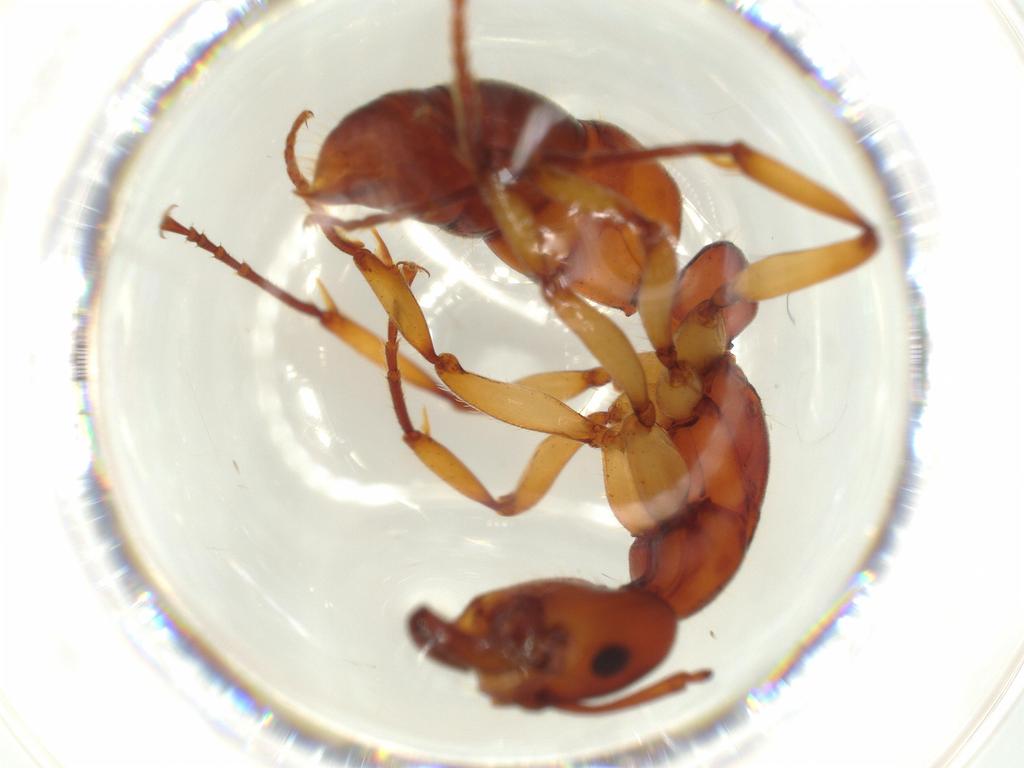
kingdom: Animalia
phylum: Arthropoda
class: Insecta
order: Hymenoptera
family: Formicidae
